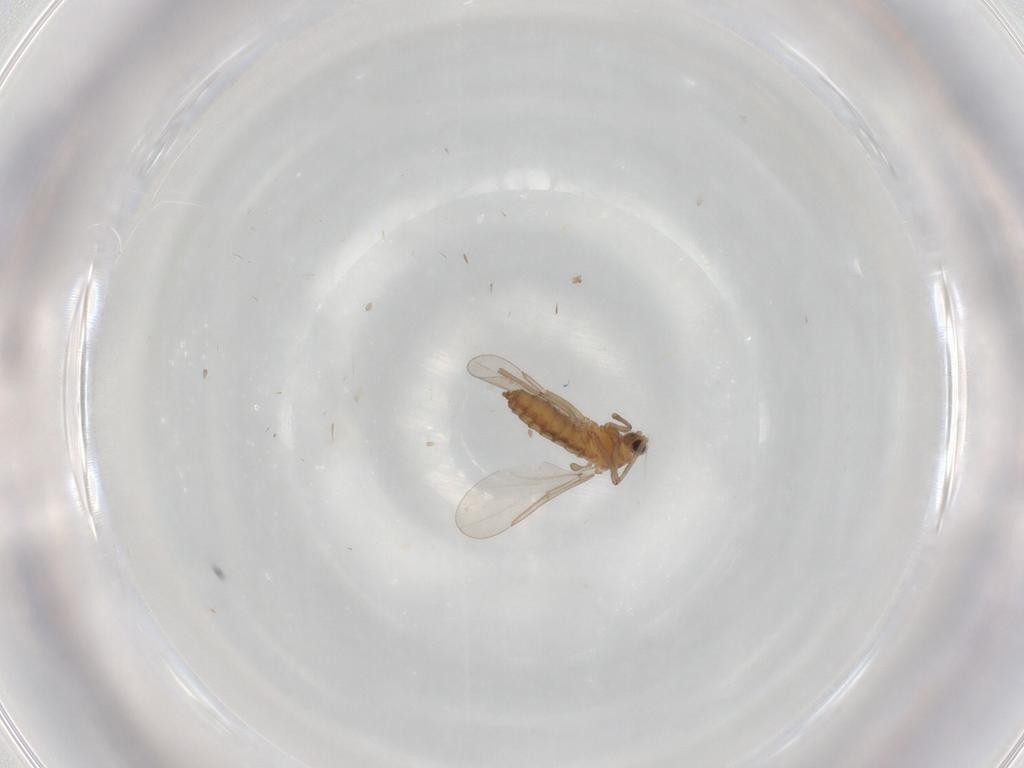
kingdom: Animalia
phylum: Arthropoda
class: Insecta
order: Diptera
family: Cecidomyiidae
